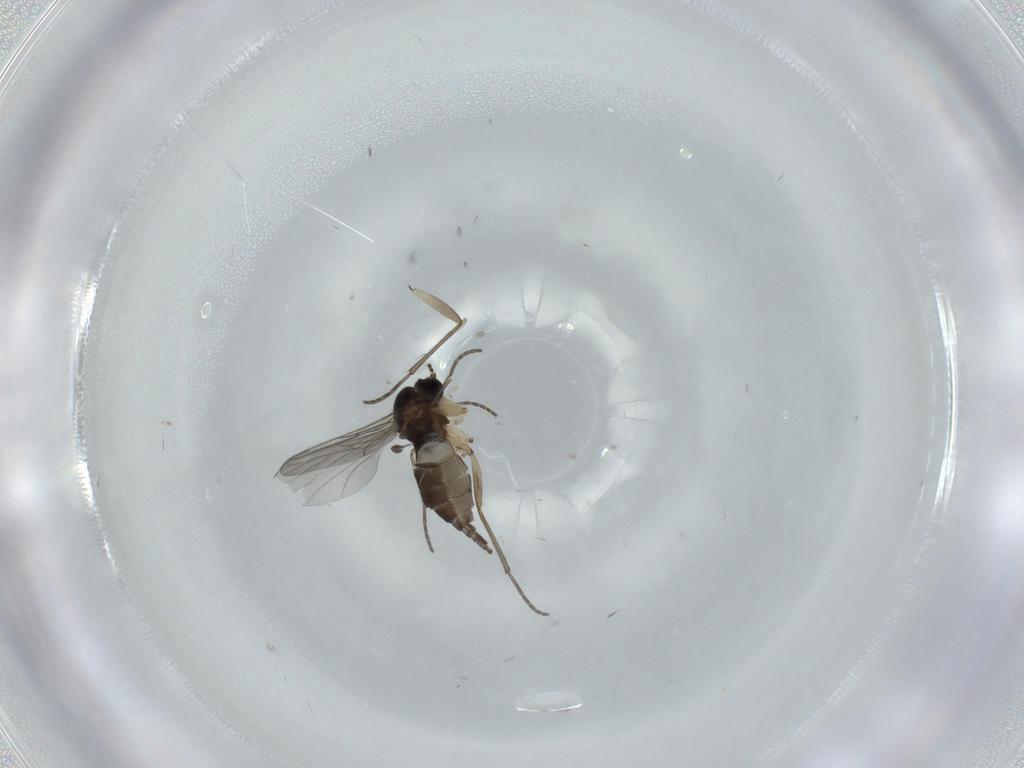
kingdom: Animalia
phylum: Arthropoda
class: Insecta
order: Diptera
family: Sciaridae
